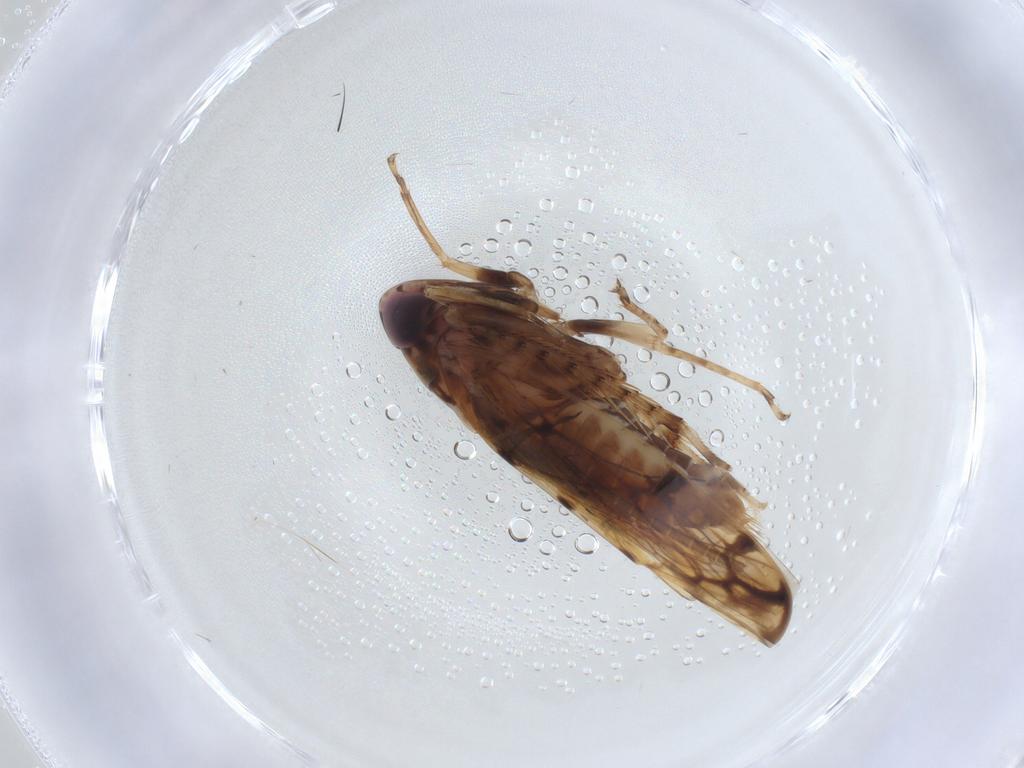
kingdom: Animalia
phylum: Arthropoda
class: Insecta
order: Hemiptera
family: Cicadellidae
